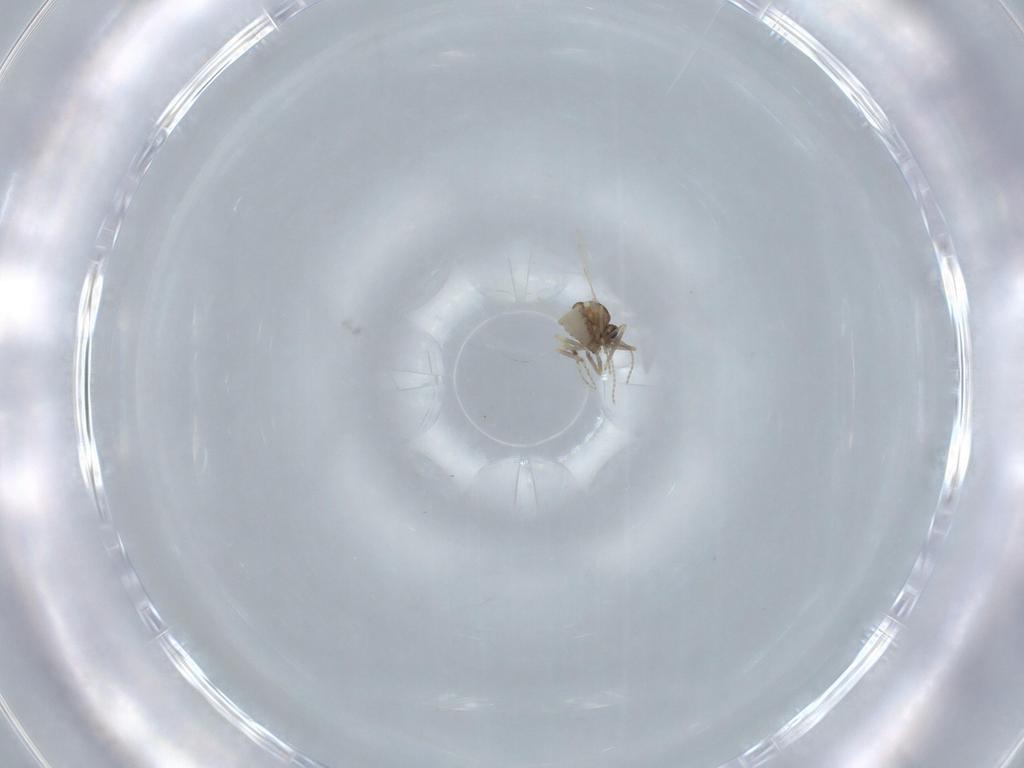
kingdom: Animalia
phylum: Arthropoda
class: Insecta
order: Diptera
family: Ceratopogonidae
